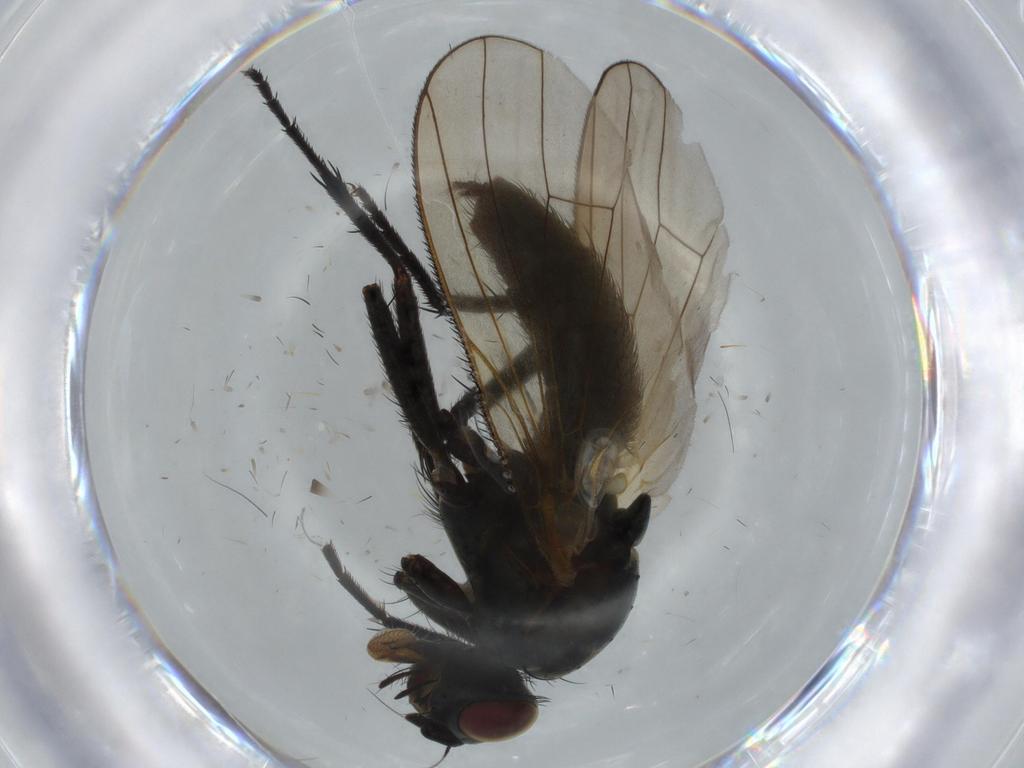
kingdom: Animalia
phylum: Arthropoda
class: Insecta
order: Diptera
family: Anthomyiidae
